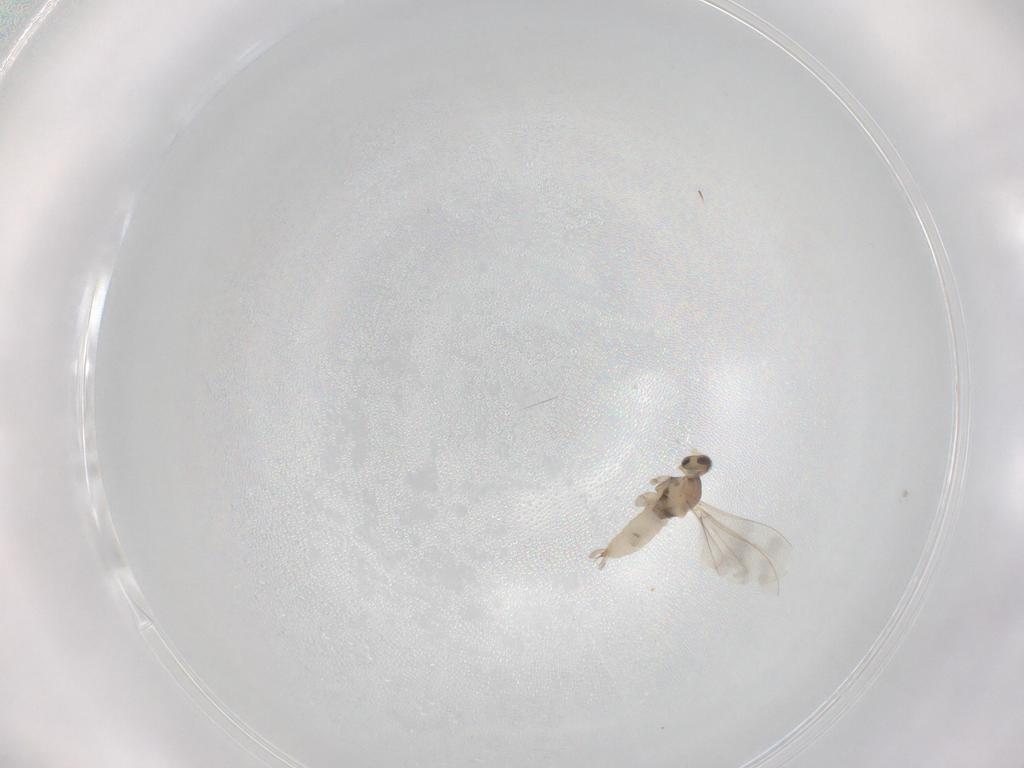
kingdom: Animalia
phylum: Arthropoda
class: Insecta
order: Diptera
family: Cecidomyiidae
